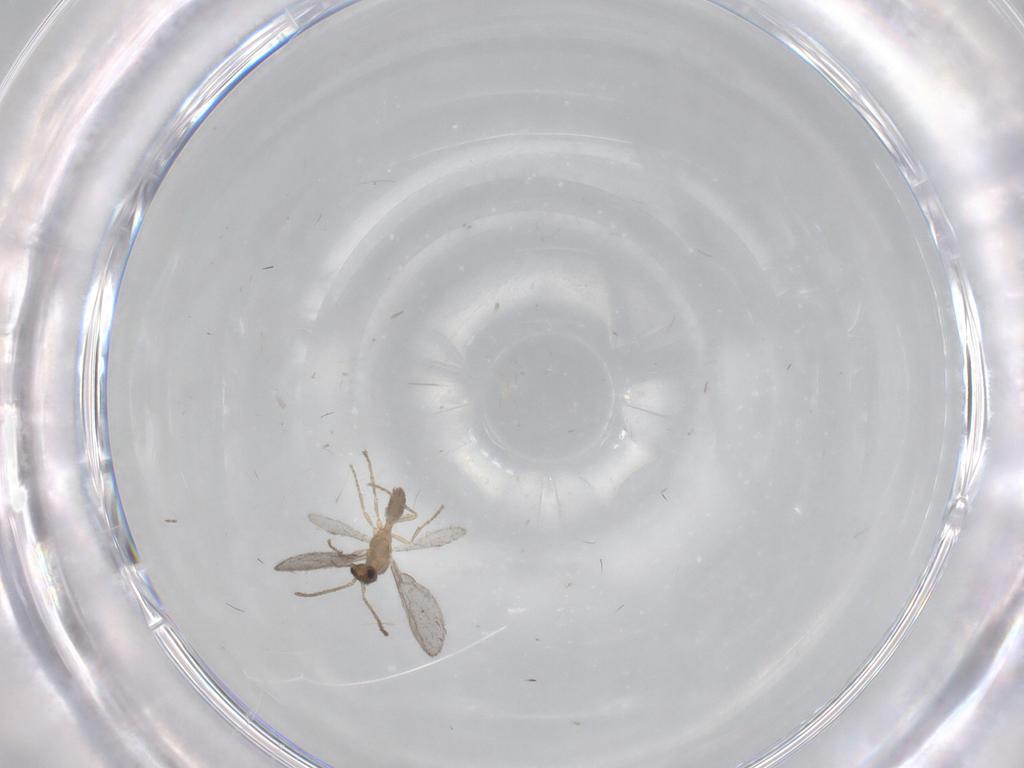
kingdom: Animalia
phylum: Arthropoda
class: Insecta
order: Hymenoptera
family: Formicidae
